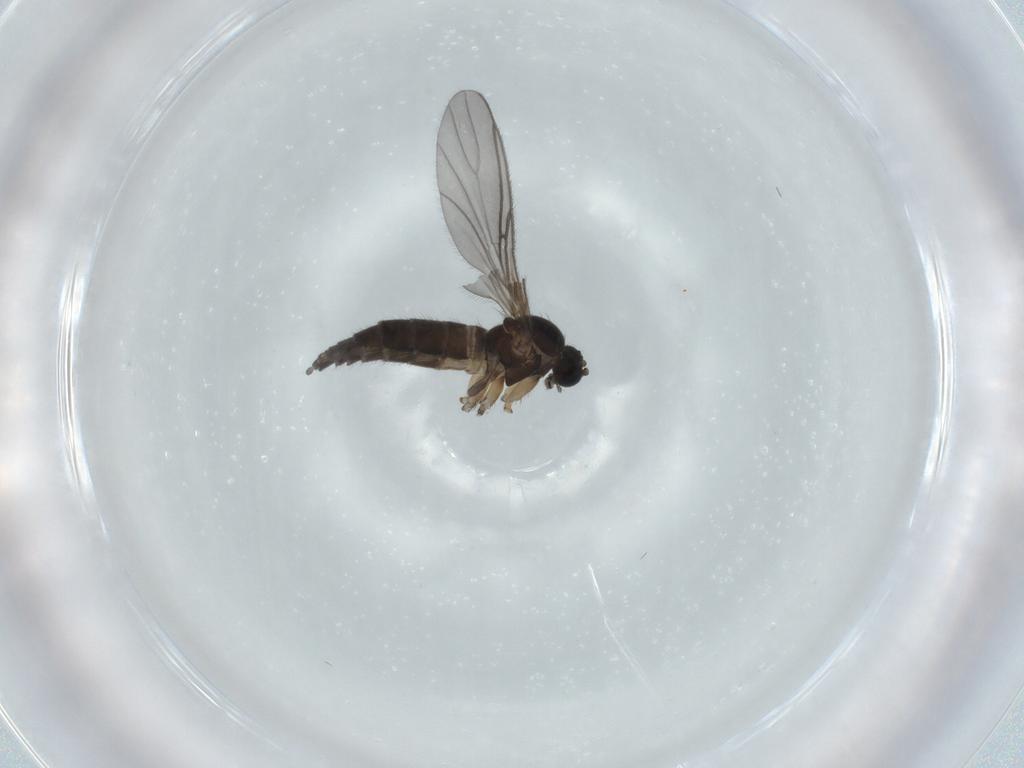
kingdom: Animalia
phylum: Arthropoda
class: Insecta
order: Diptera
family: Sciaridae
